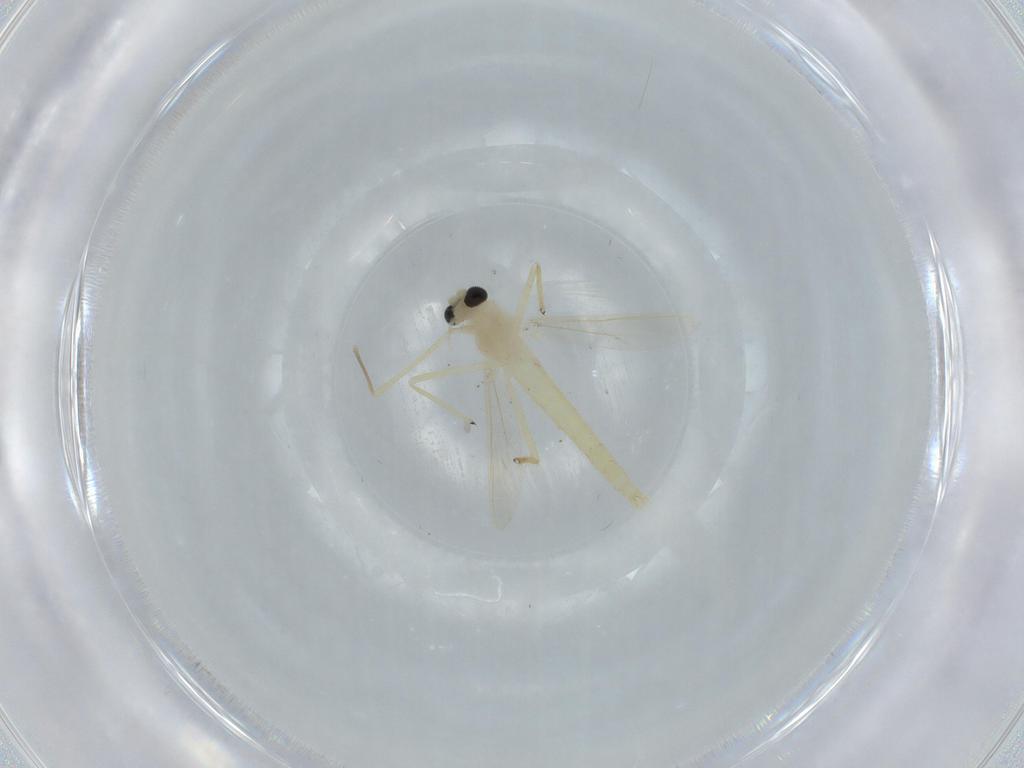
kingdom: Animalia
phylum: Arthropoda
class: Insecta
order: Diptera
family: Cecidomyiidae
